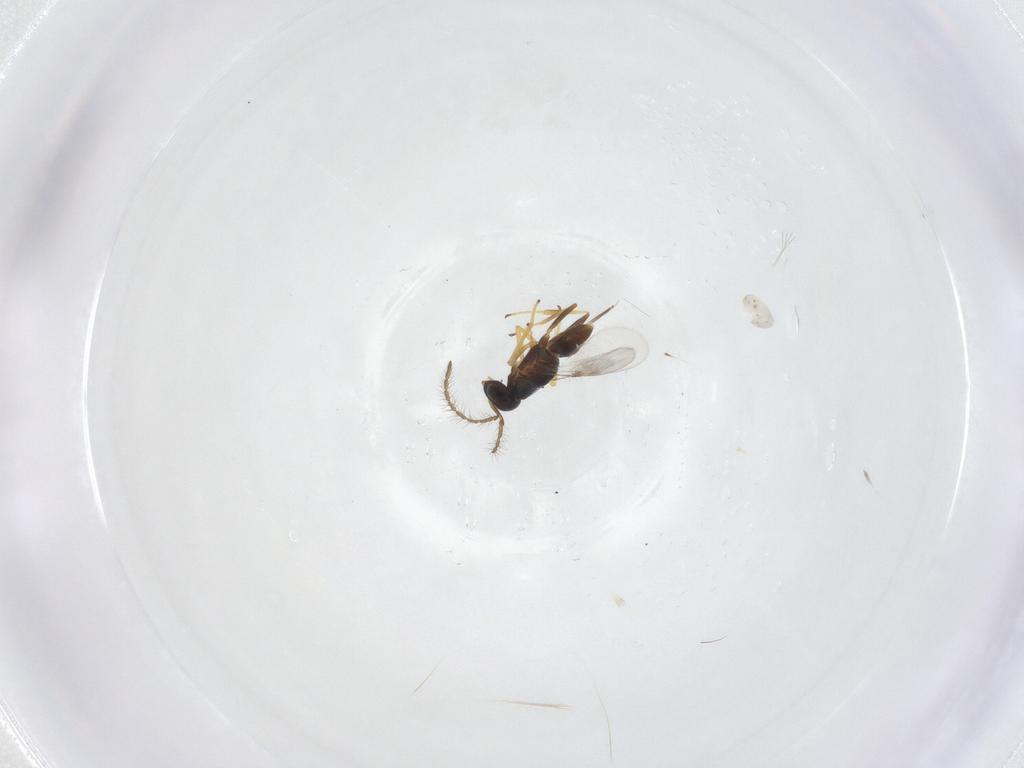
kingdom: Animalia
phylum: Arthropoda
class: Insecta
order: Hymenoptera
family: Encyrtidae
